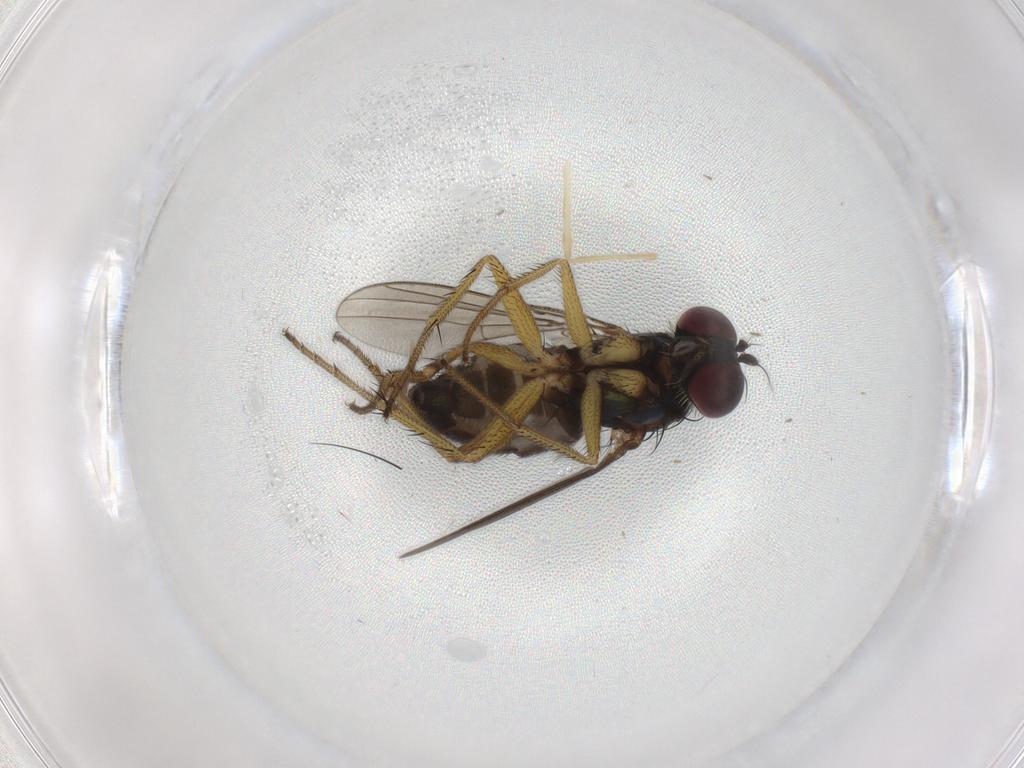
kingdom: Animalia
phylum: Arthropoda
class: Insecta
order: Diptera
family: Dolichopodidae
